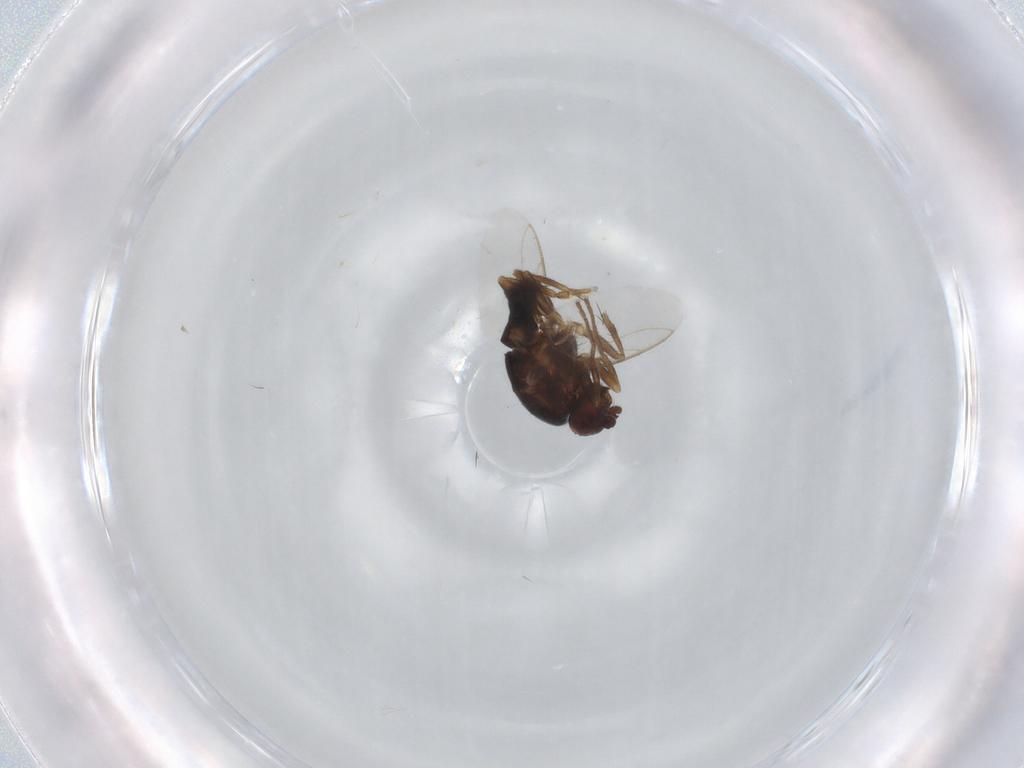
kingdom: Animalia
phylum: Arthropoda
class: Insecta
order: Diptera
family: Sphaeroceridae
